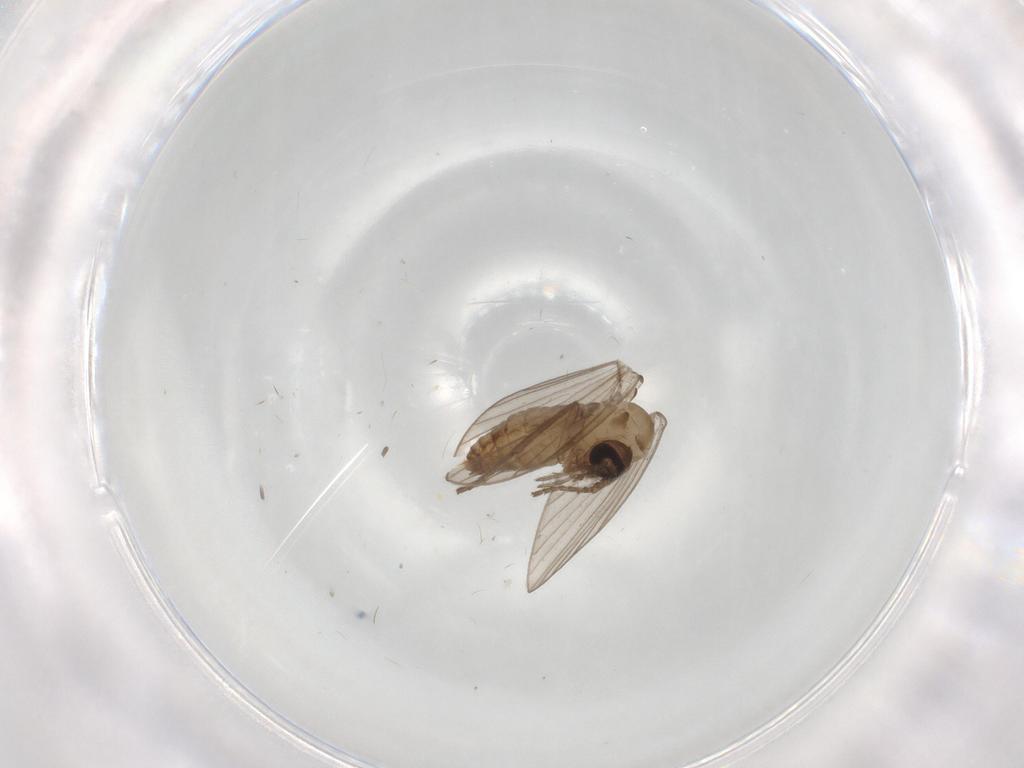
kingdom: Animalia
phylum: Arthropoda
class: Insecta
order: Diptera
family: Psychodidae
